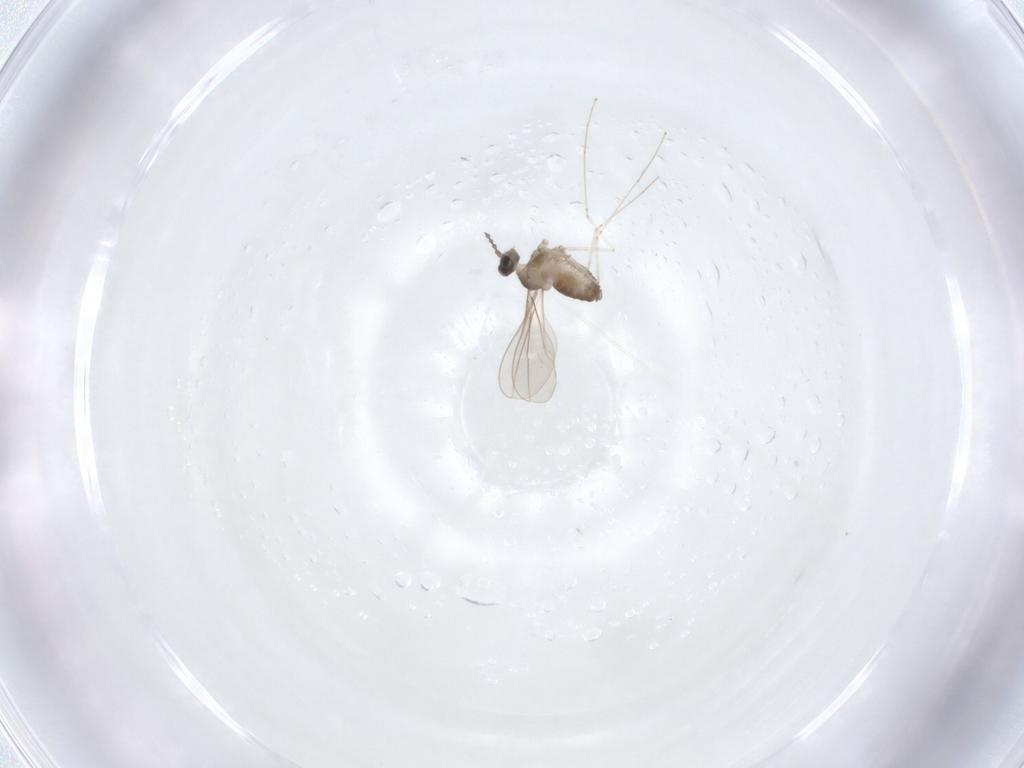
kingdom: Animalia
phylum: Arthropoda
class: Insecta
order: Diptera
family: Cecidomyiidae
